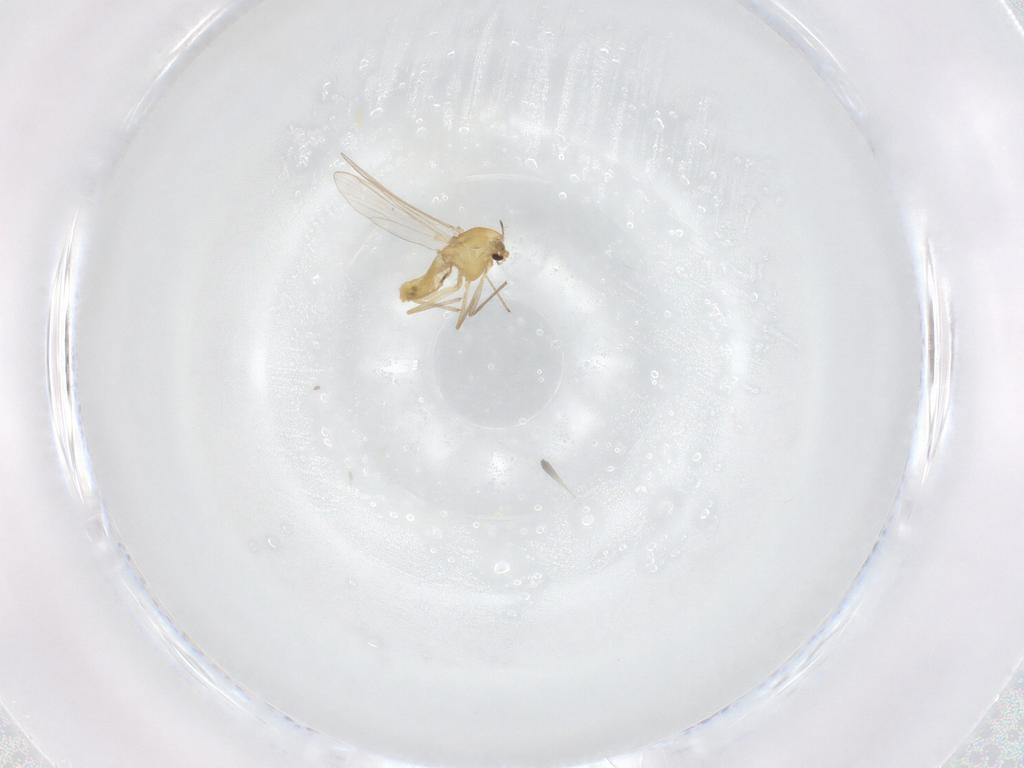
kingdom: Animalia
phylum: Arthropoda
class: Insecta
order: Diptera
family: Chironomidae
